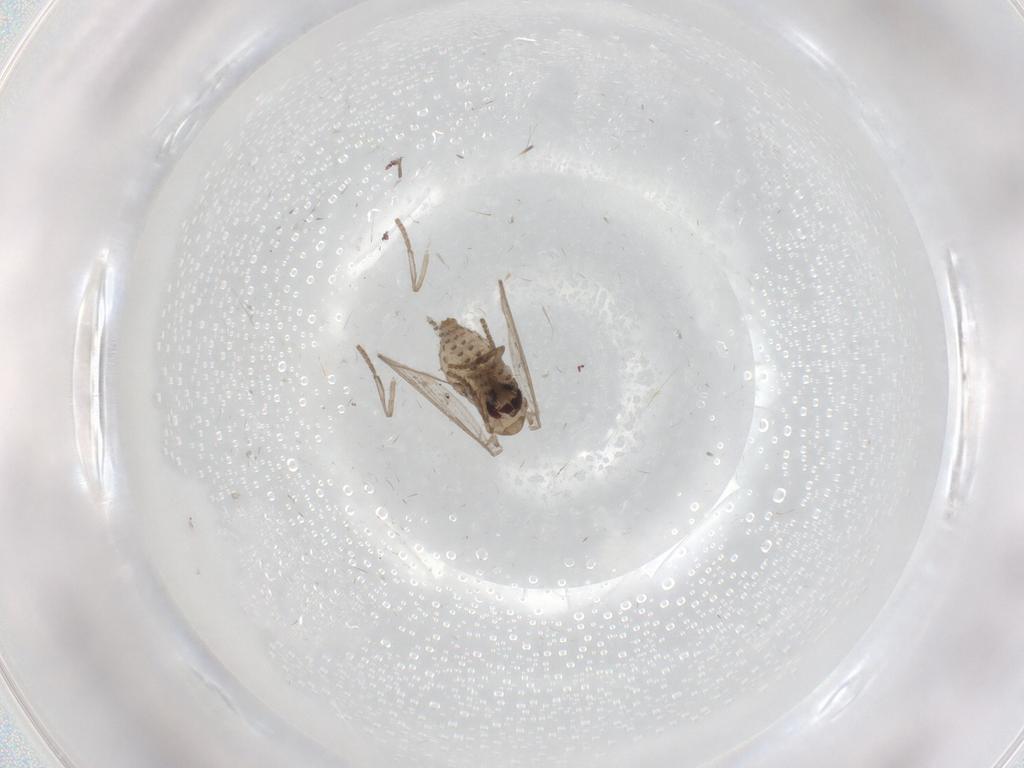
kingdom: Animalia
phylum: Arthropoda
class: Insecta
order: Diptera
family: Psychodidae
